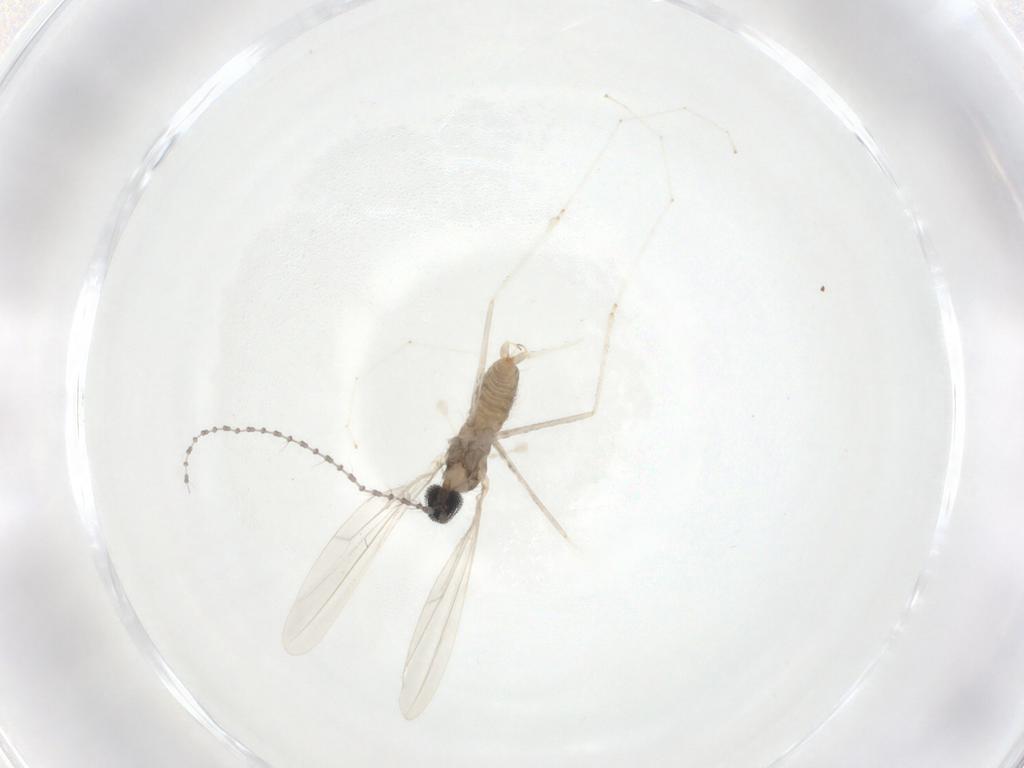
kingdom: Animalia
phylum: Arthropoda
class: Insecta
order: Diptera
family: Cecidomyiidae
